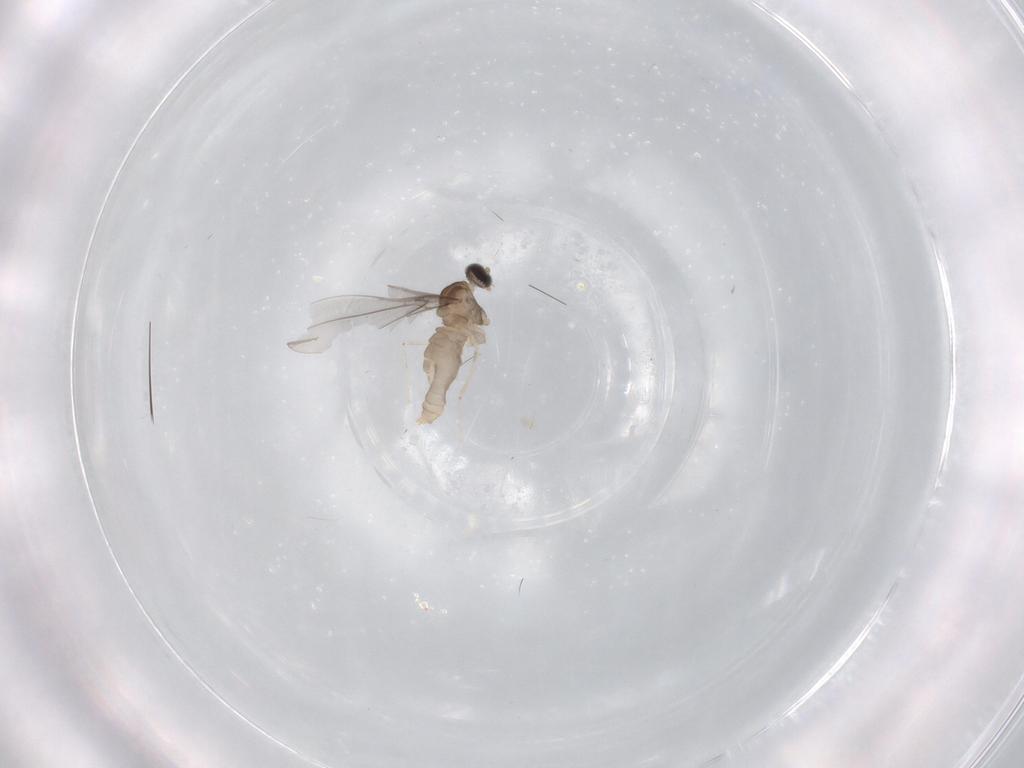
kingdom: Animalia
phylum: Arthropoda
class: Insecta
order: Diptera
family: Cecidomyiidae
